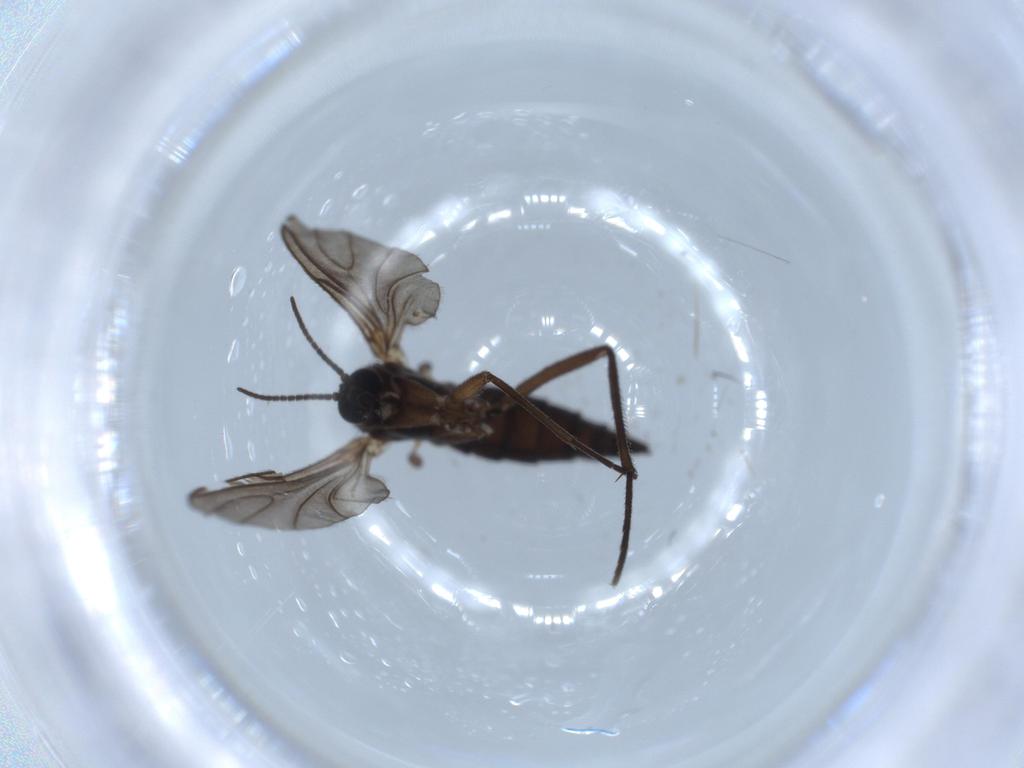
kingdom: Animalia
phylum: Arthropoda
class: Insecta
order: Diptera
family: Sciaridae
